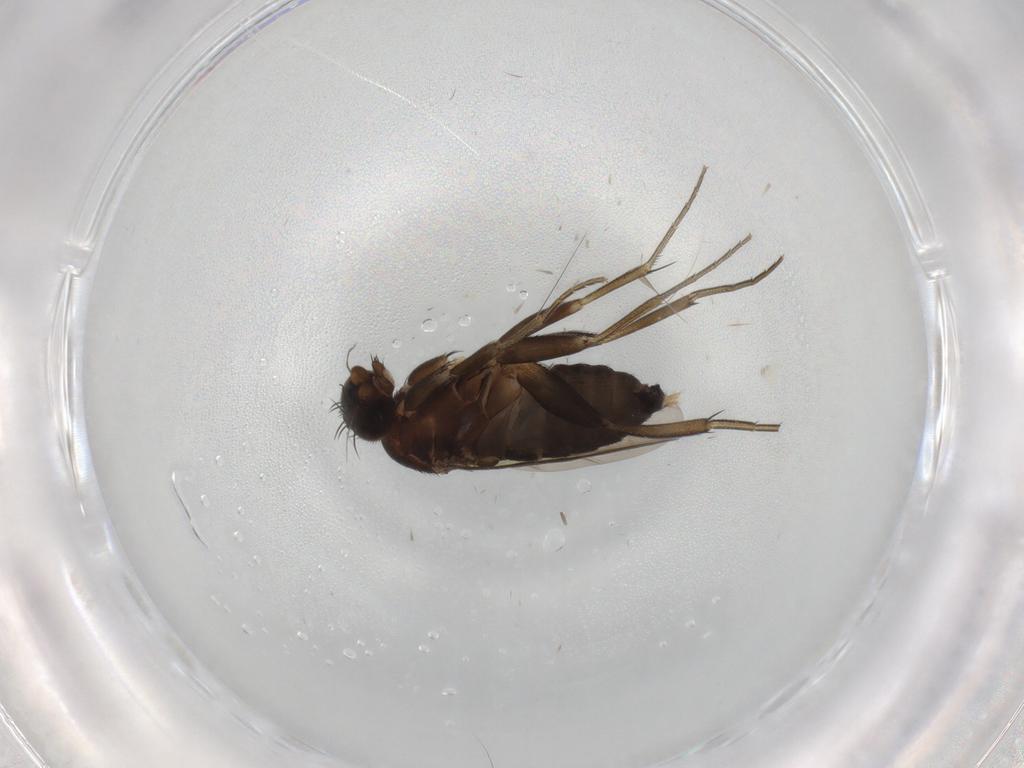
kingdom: Animalia
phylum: Arthropoda
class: Insecta
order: Diptera
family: Phoridae
